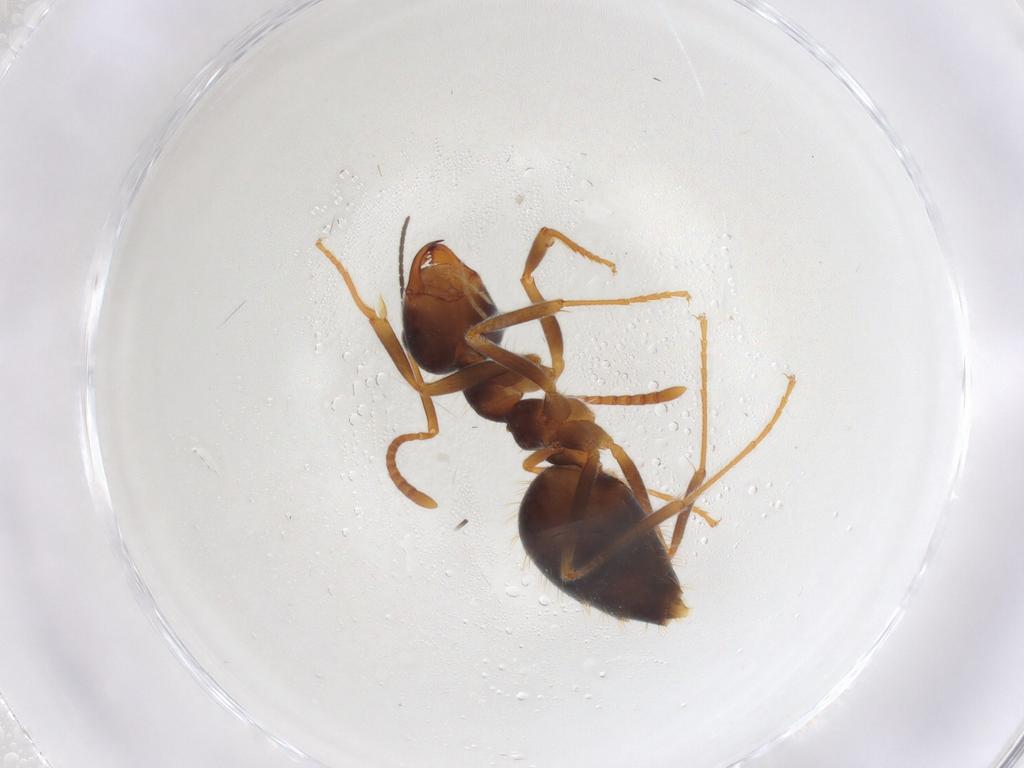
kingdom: Animalia
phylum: Arthropoda
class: Insecta
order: Hymenoptera
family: Formicidae
